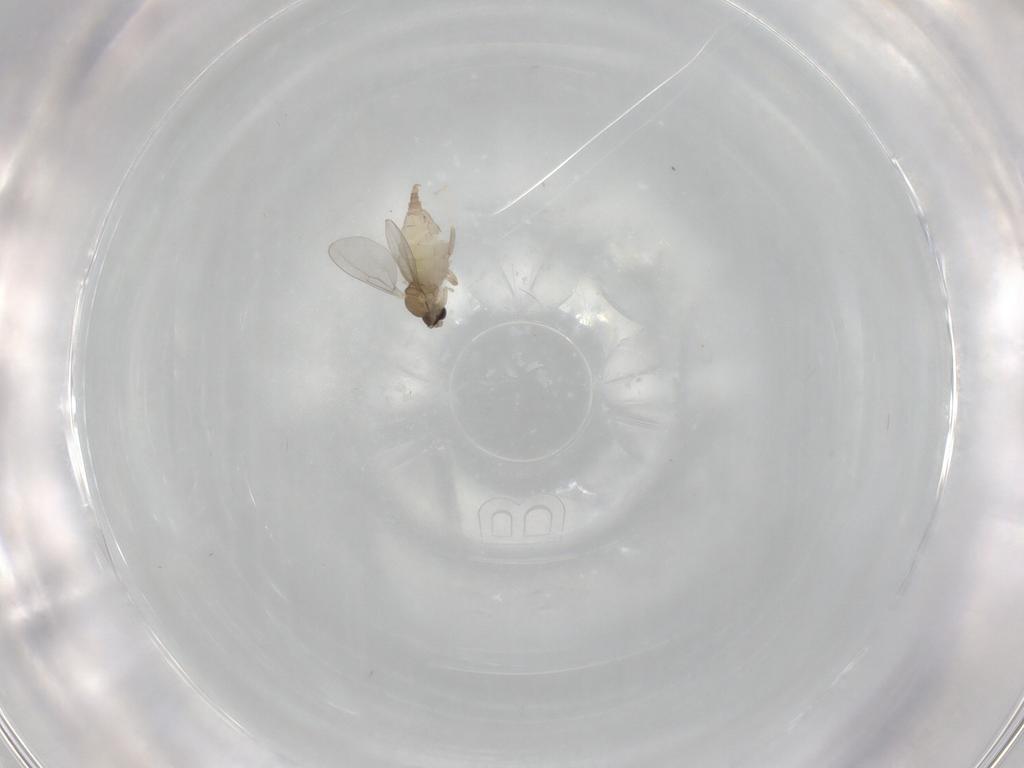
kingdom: Animalia
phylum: Arthropoda
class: Insecta
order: Diptera
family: Cecidomyiidae
